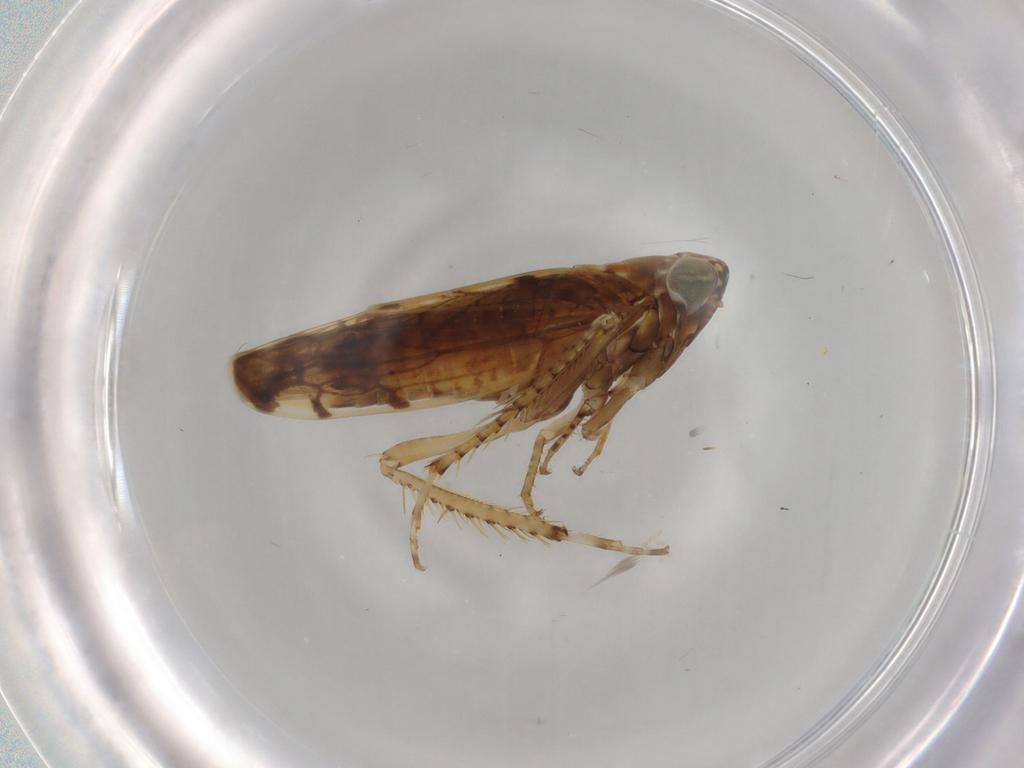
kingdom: Animalia
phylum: Arthropoda
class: Insecta
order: Hemiptera
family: Cicadellidae
